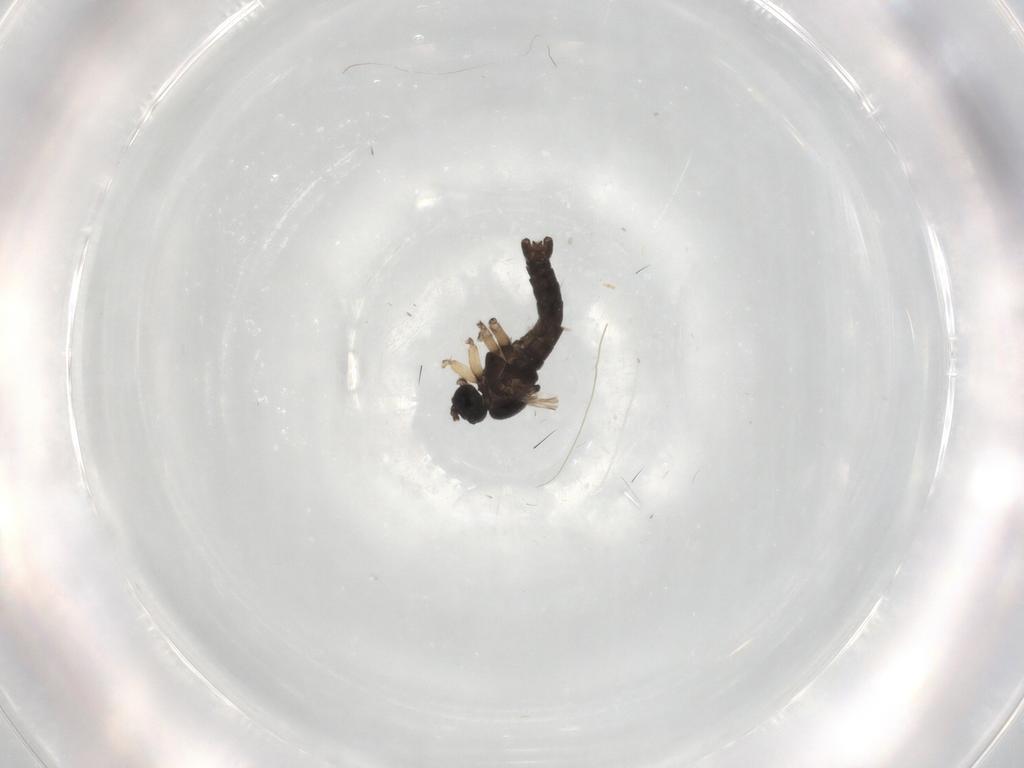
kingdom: Animalia
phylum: Arthropoda
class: Insecta
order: Diptera
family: Sciaridae
